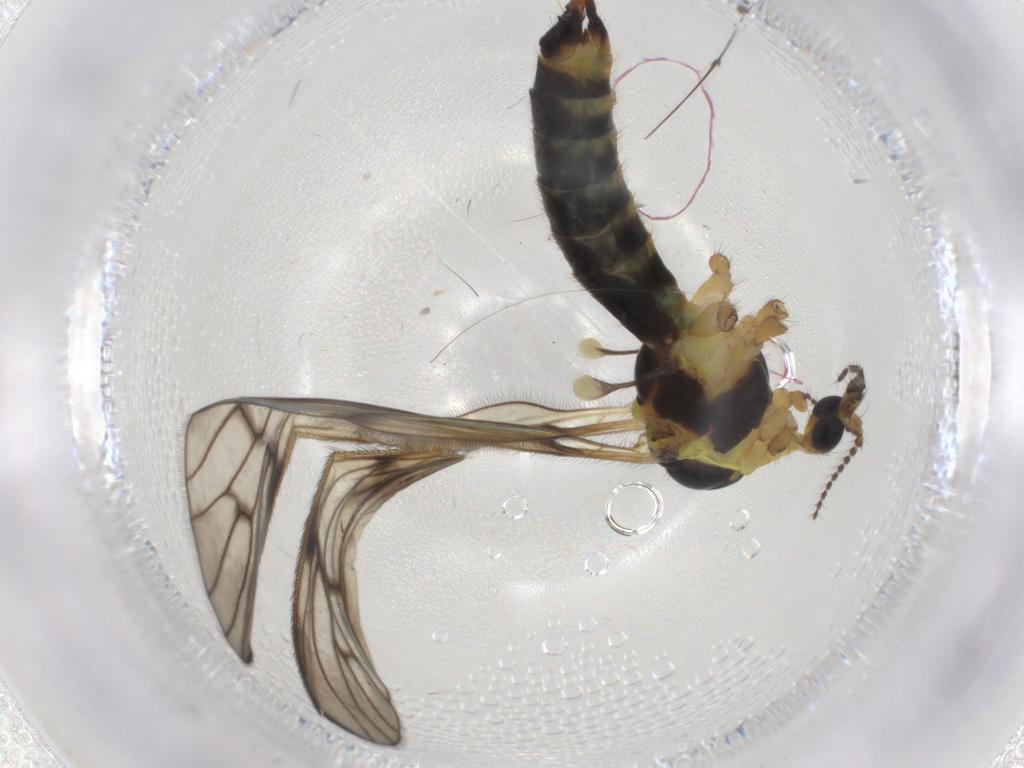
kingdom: Animalia
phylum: Arthropoda
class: Insecta
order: Diptera
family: Limoniidae
